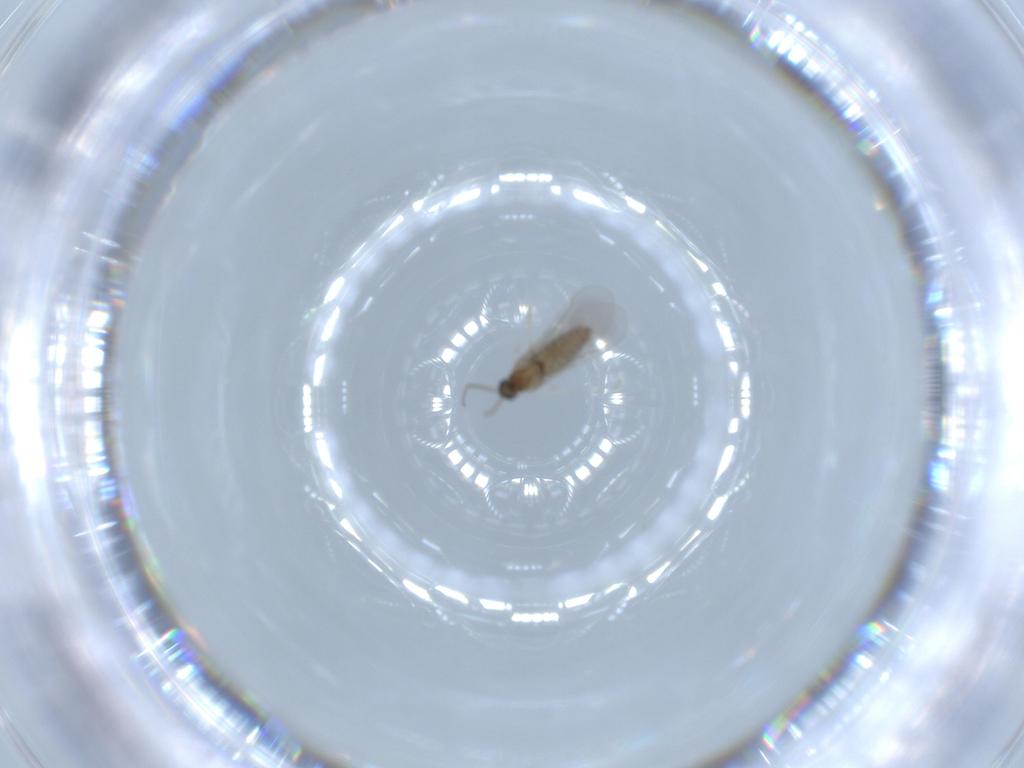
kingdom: Animalia
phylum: Arthropoda
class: Insecta
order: Diptera
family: Cecidomyiidae
